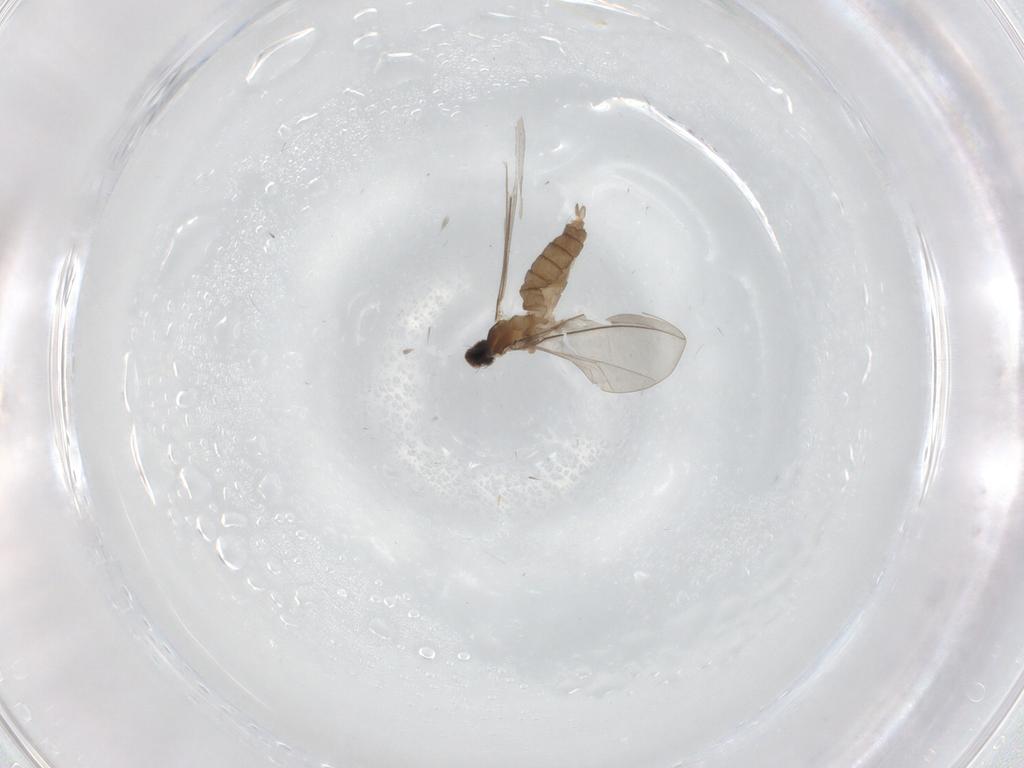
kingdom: Animalia
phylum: Arthropoda
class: Insecta
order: Diptera
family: Cecidomyiidae
